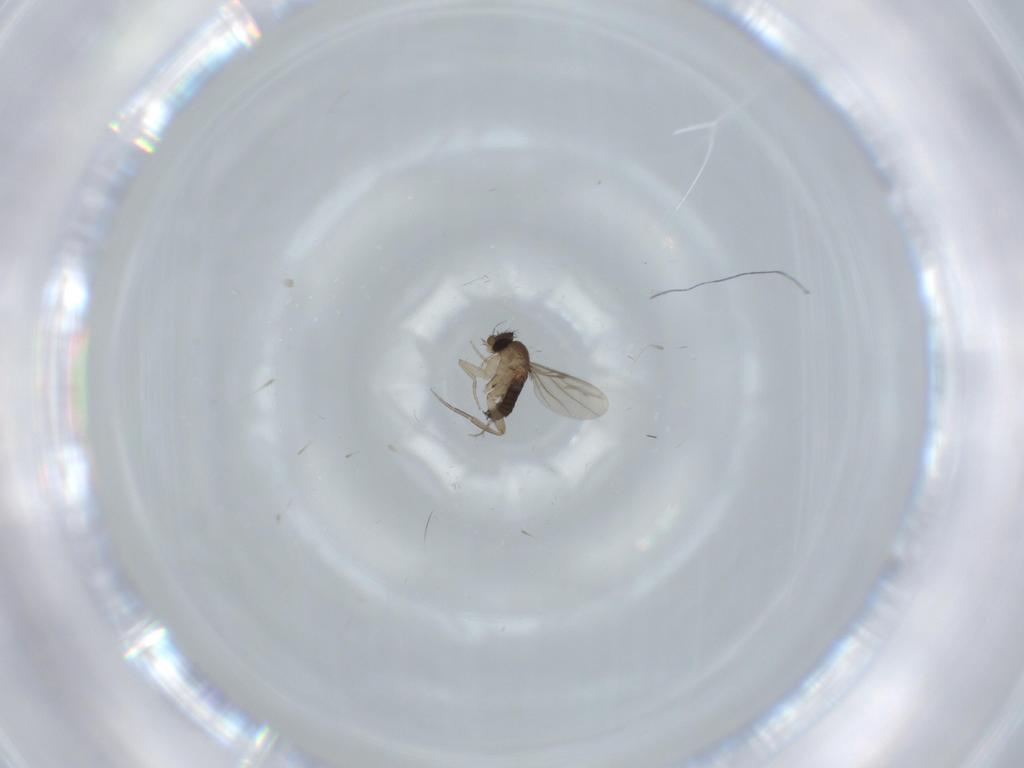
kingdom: Animalia
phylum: Arthropoda
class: Insecta
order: Diptera
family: Phoridae
